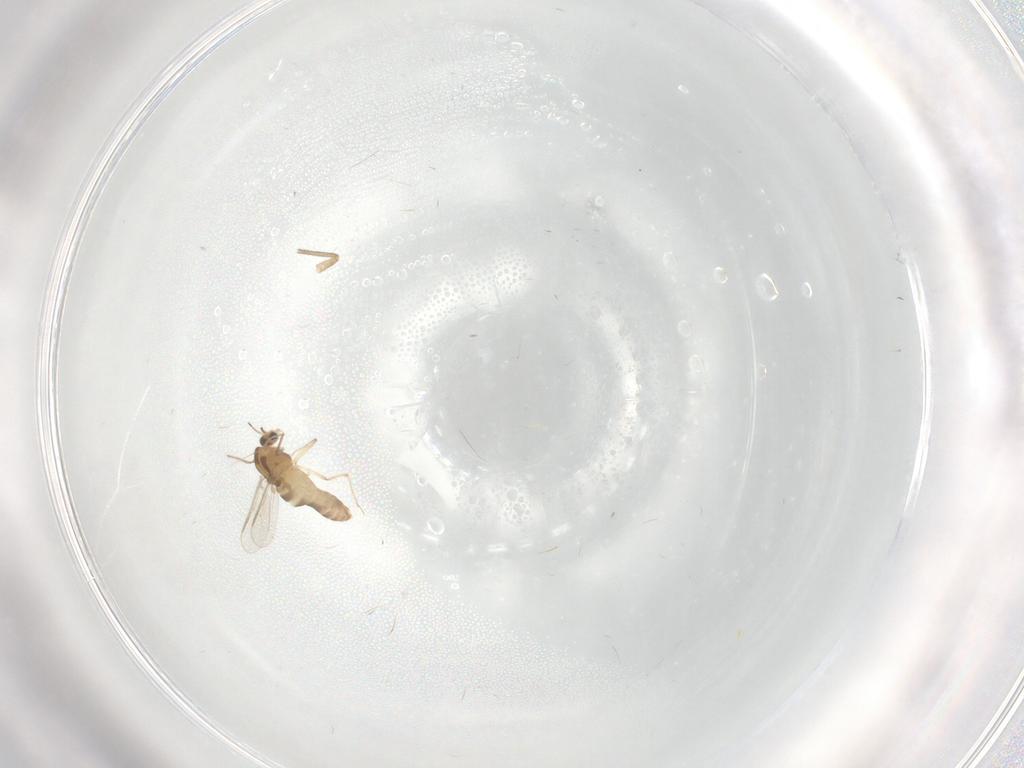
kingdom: Animalia
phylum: Arthropoda
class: Insecta
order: Diptera
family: Chironomidae
